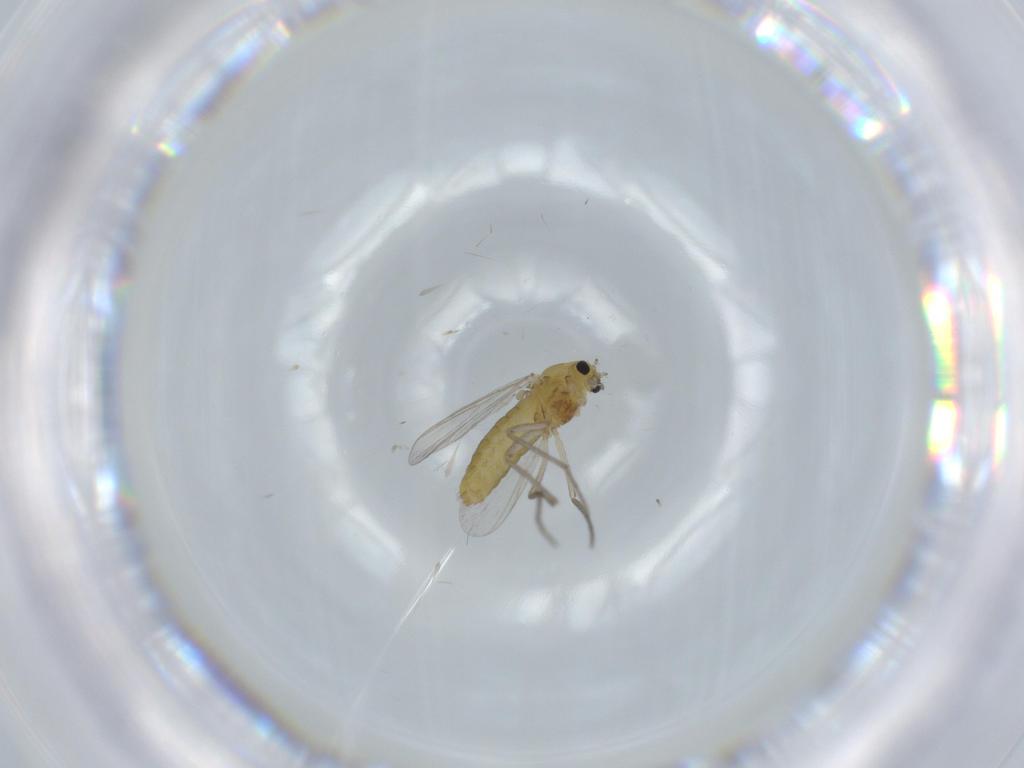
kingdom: Animalia
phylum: Arthropoda
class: Insecta
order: Diptera
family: Chironomidae
